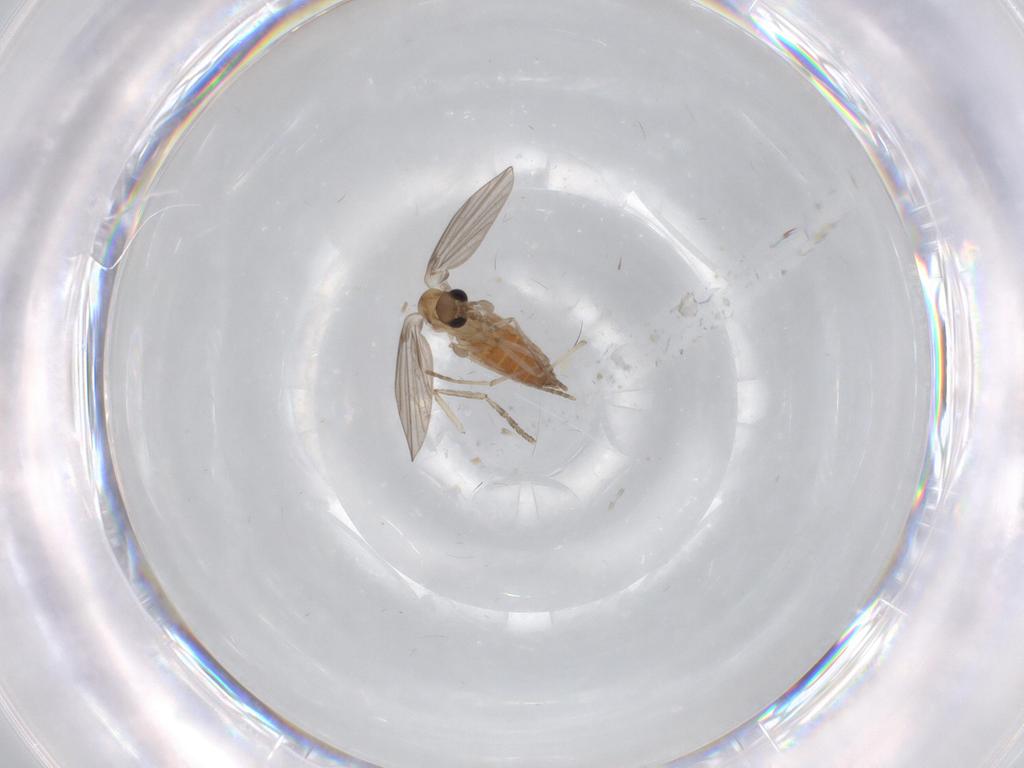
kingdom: Animalia
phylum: Arthropoda
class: Insecta
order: Diptera
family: Psychodidae
